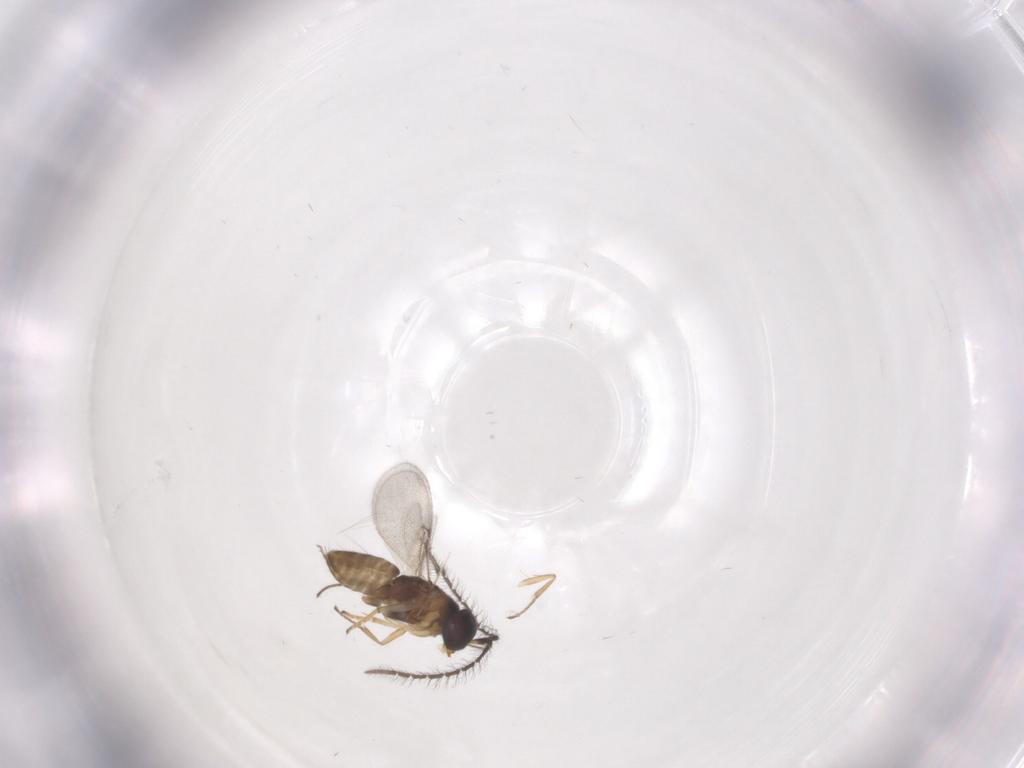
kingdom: Animalia
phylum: Arthropoda
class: Insecta
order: Hymenoptera
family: Encyrtidae
